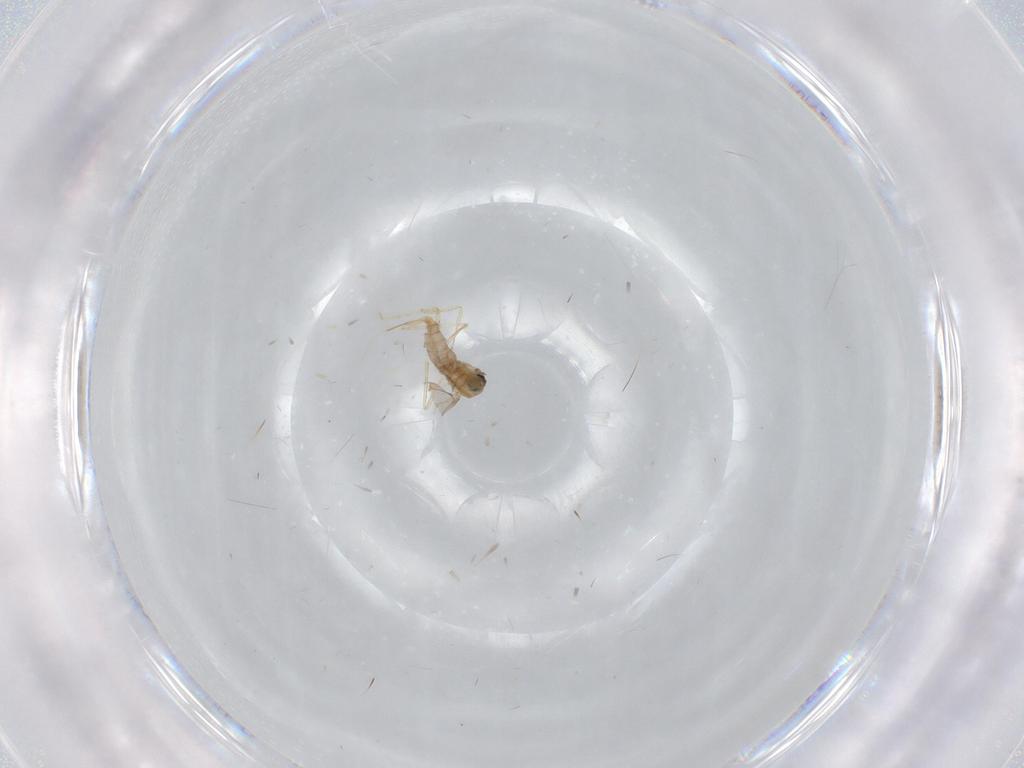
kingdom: Animalia
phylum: Arthropoda
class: Insecta
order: Diptera
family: Cecidomyiidae
